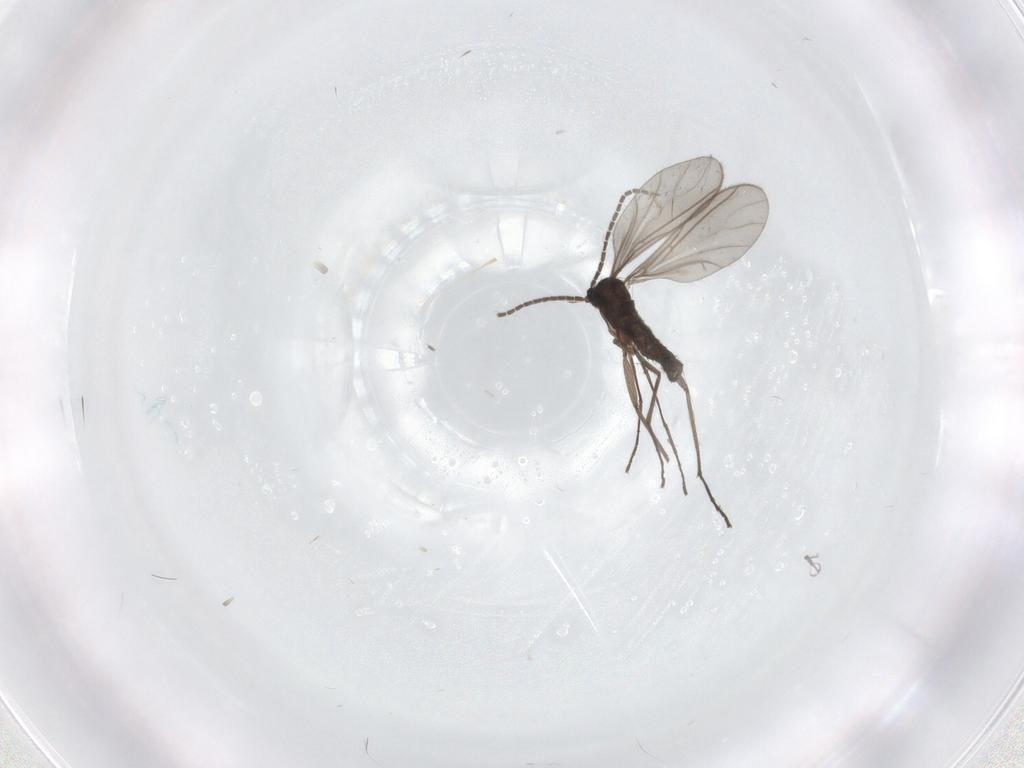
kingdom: Animalia
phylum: Arthropoda
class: Insecta
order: Diptera
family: Sciaridae
